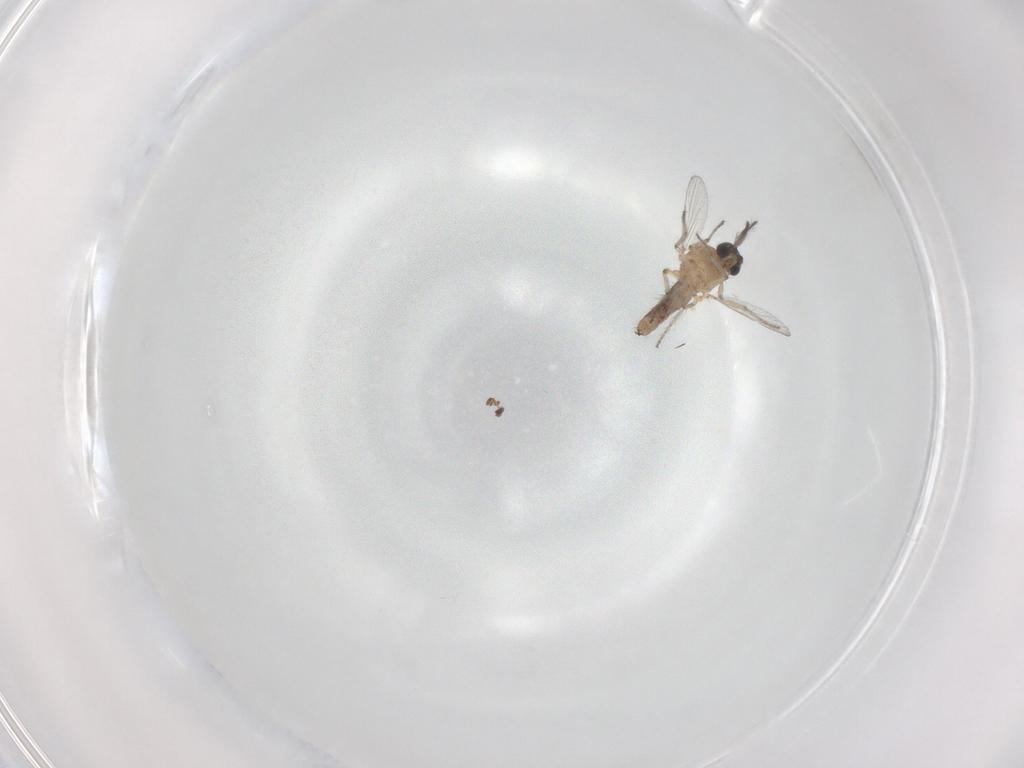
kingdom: Animalia
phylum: Arthropoda
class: Insecta
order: Diptera
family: Ceratopogonidae
